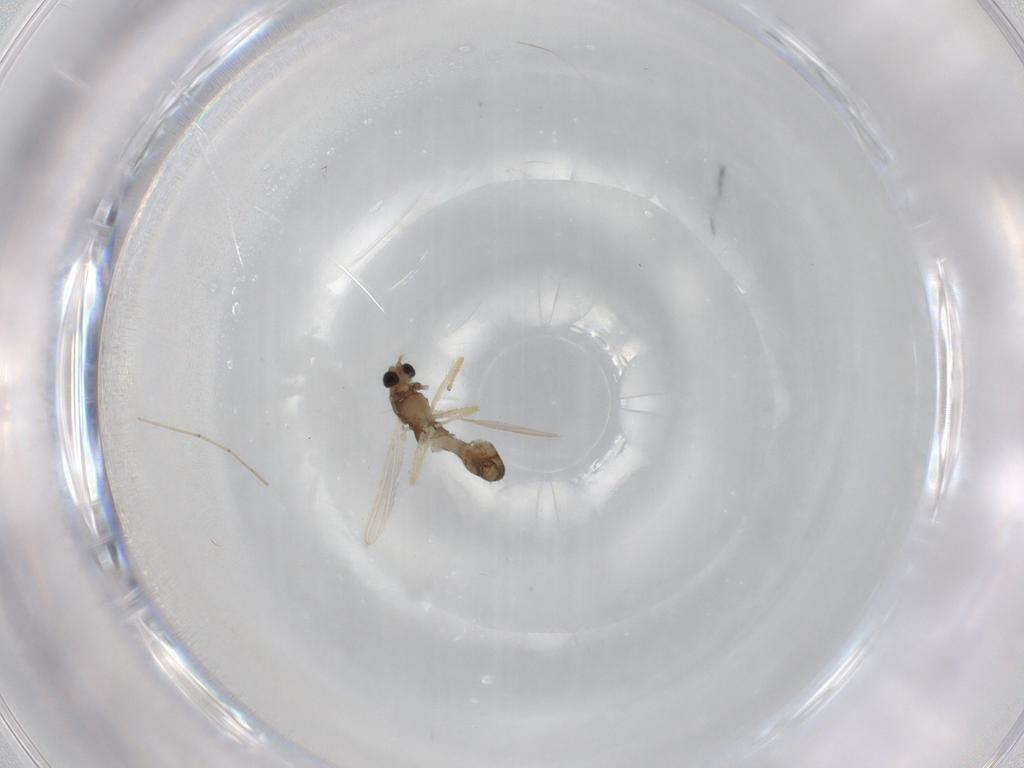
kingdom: Animalia
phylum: Arthropoda
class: Insecta
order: Diptera
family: Chironomidae
